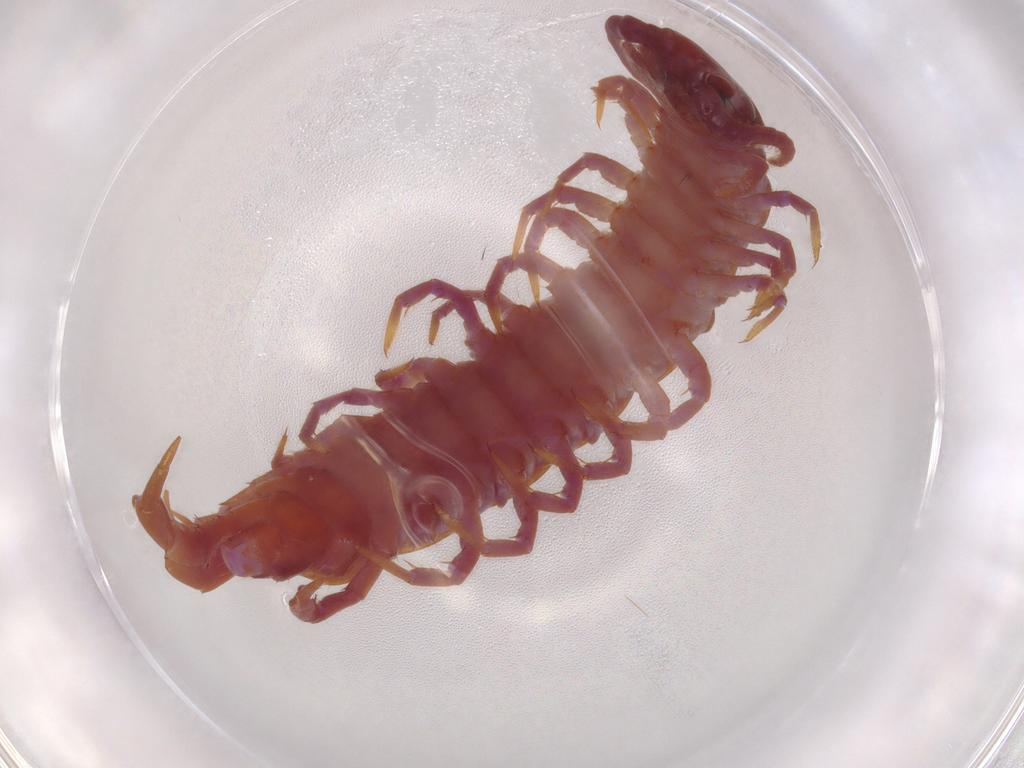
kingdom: Animalia
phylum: Arthropoda
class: Chilopoda
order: Lithobiomorpha
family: Lithobiidae
